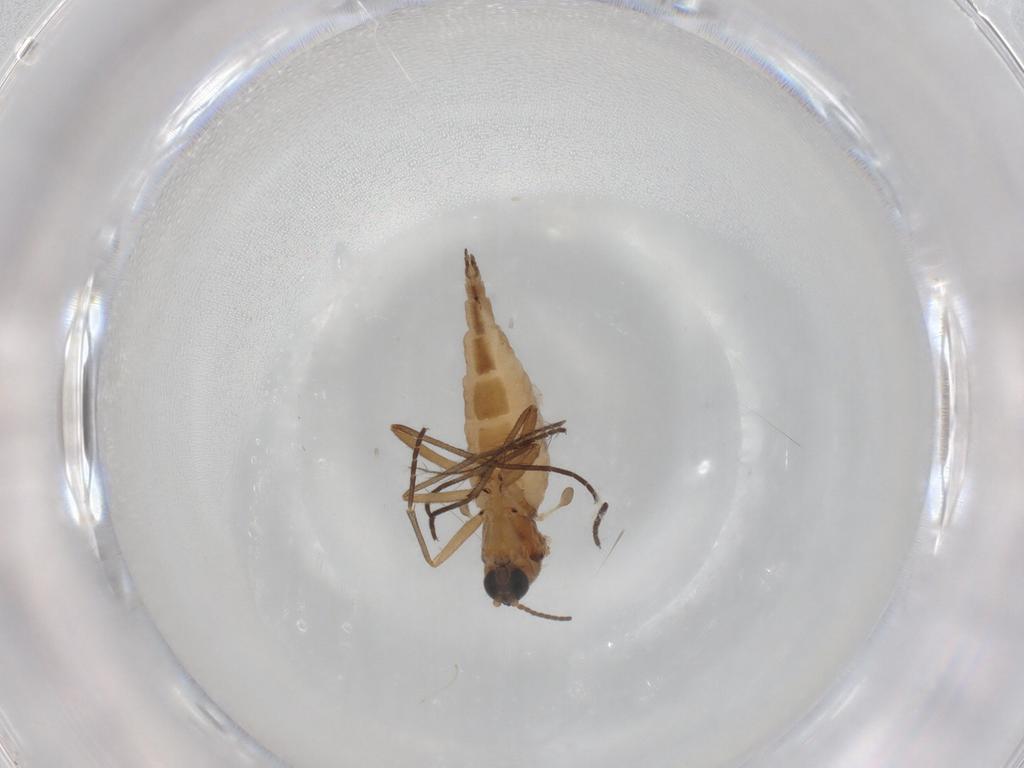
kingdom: Animalia
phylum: Arthropoda
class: Insecta
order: Diptera
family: Sciaridae
